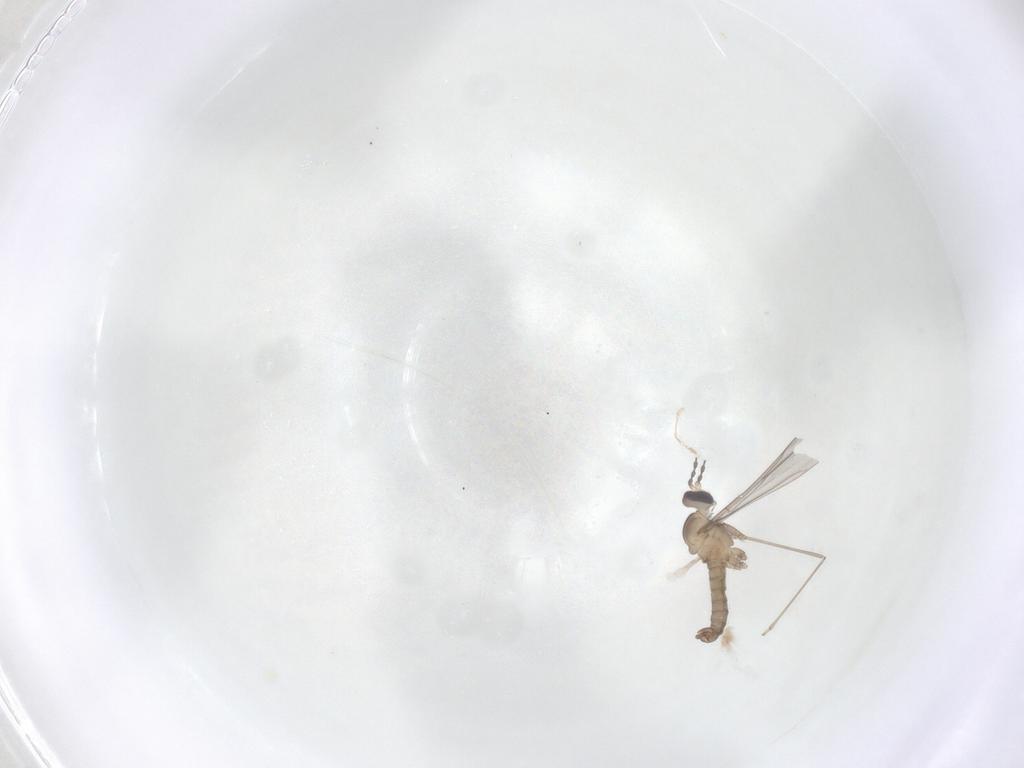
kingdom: Animalia
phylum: Arthropoda
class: Insecta
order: Diptera
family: Cecidomyiidae
